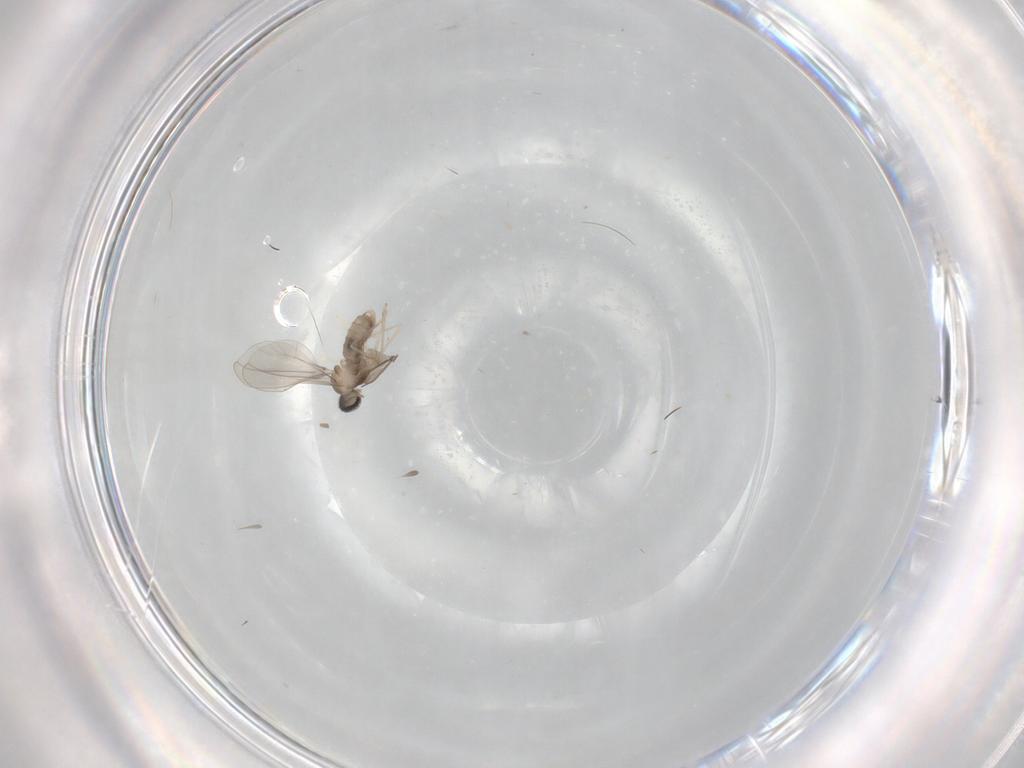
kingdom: Animalia
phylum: Arthropoda
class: Insecta
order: Diptera
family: Cecidomyiidae
